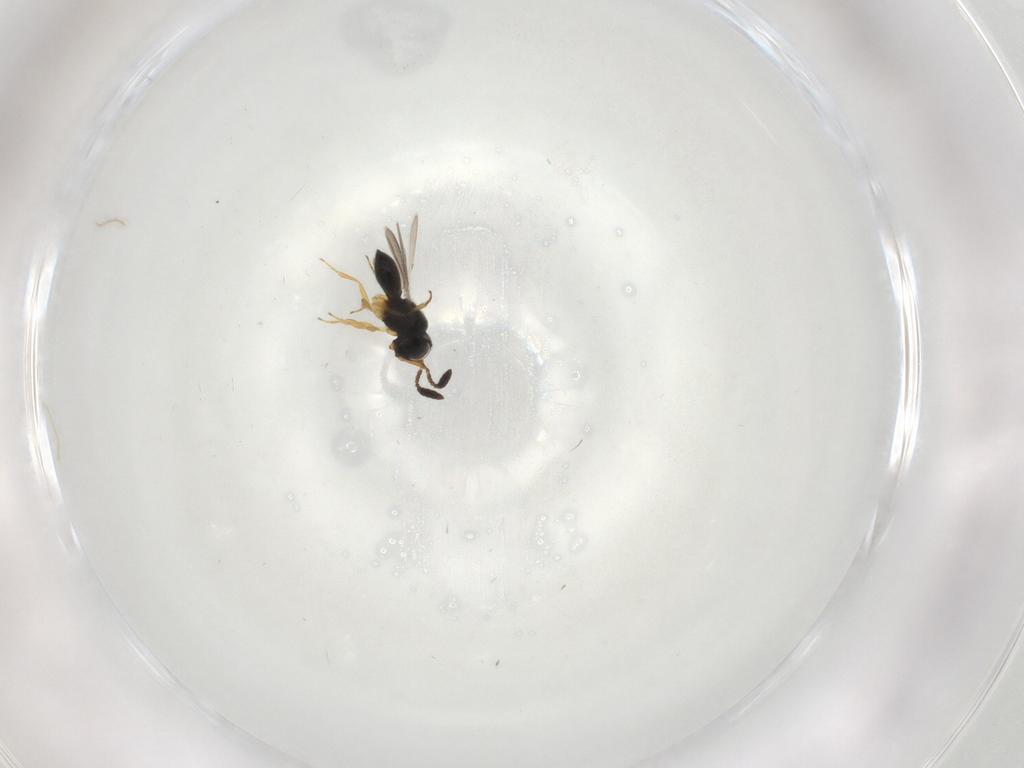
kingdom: Animalia
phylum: Arthropoda
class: Insecta
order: Hymenoptera
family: Scelionidae
